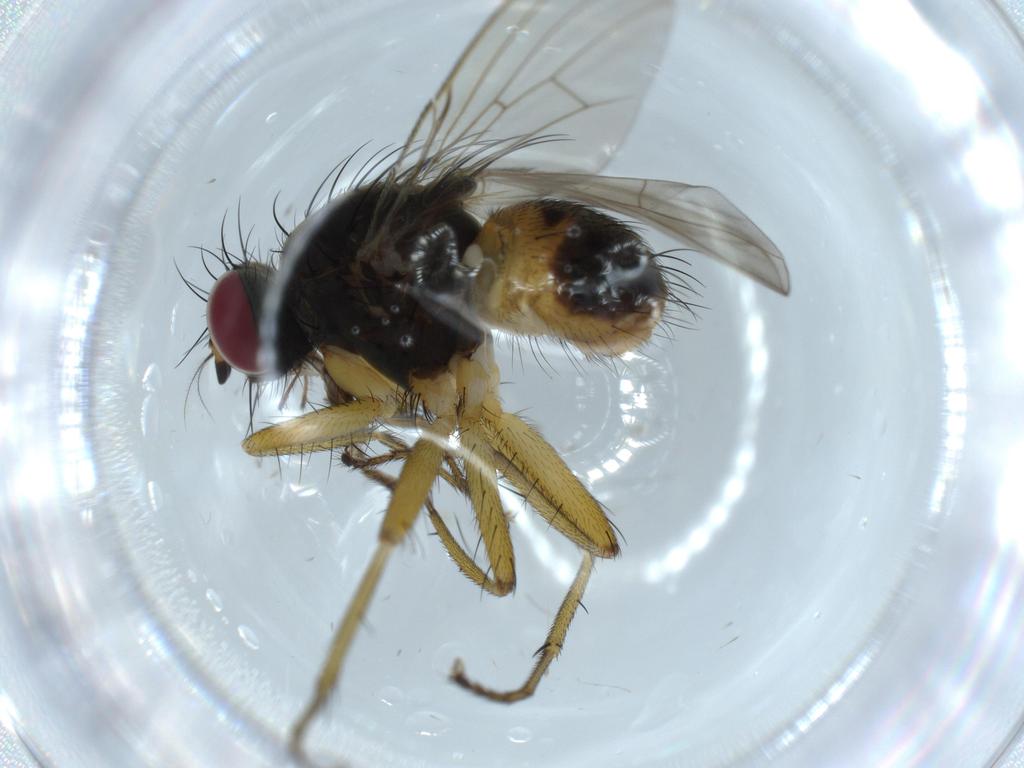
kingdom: Animalia
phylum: Arthropoda
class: Insecta
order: Diptera
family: Muscidae
